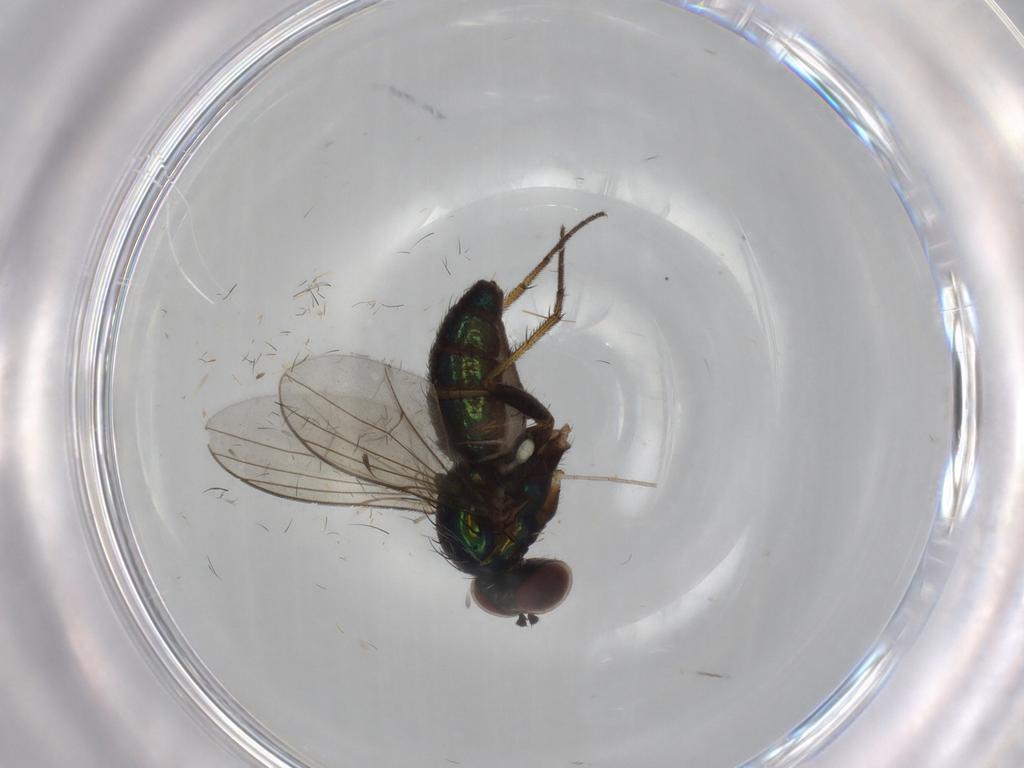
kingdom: Animalia
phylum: Arthropoda
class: Insecta
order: Diptera
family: Dolichopodidae
